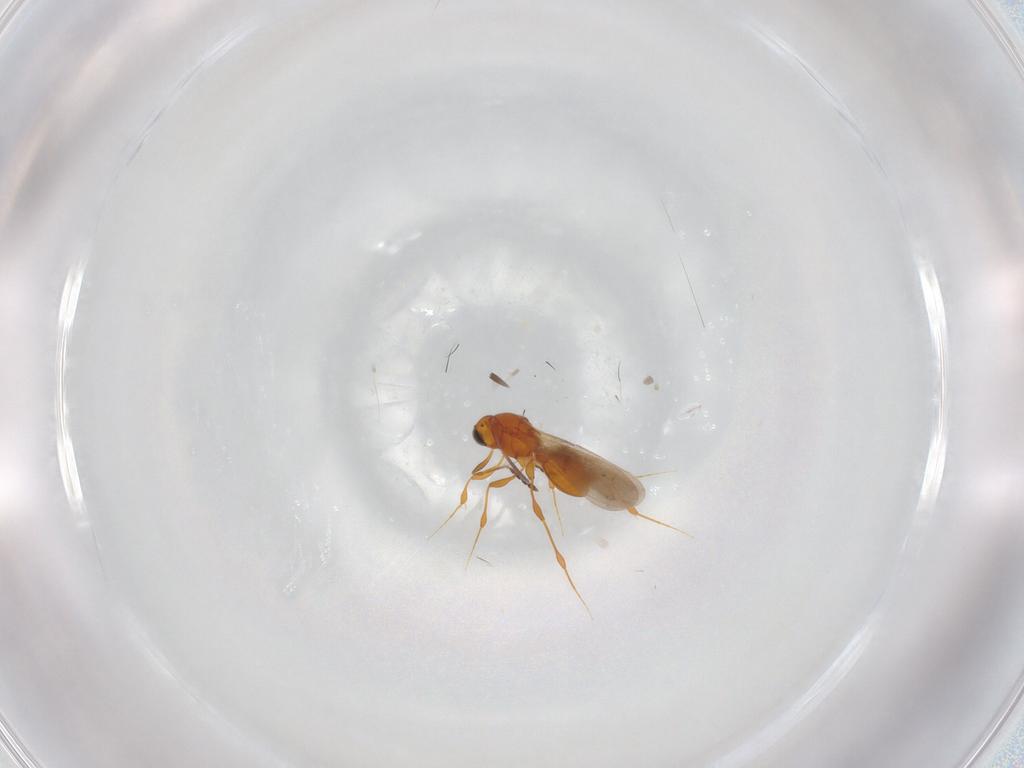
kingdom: Animalia
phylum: Arthropoda
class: Insecta
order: Hymenoptera
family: Platygastridae
